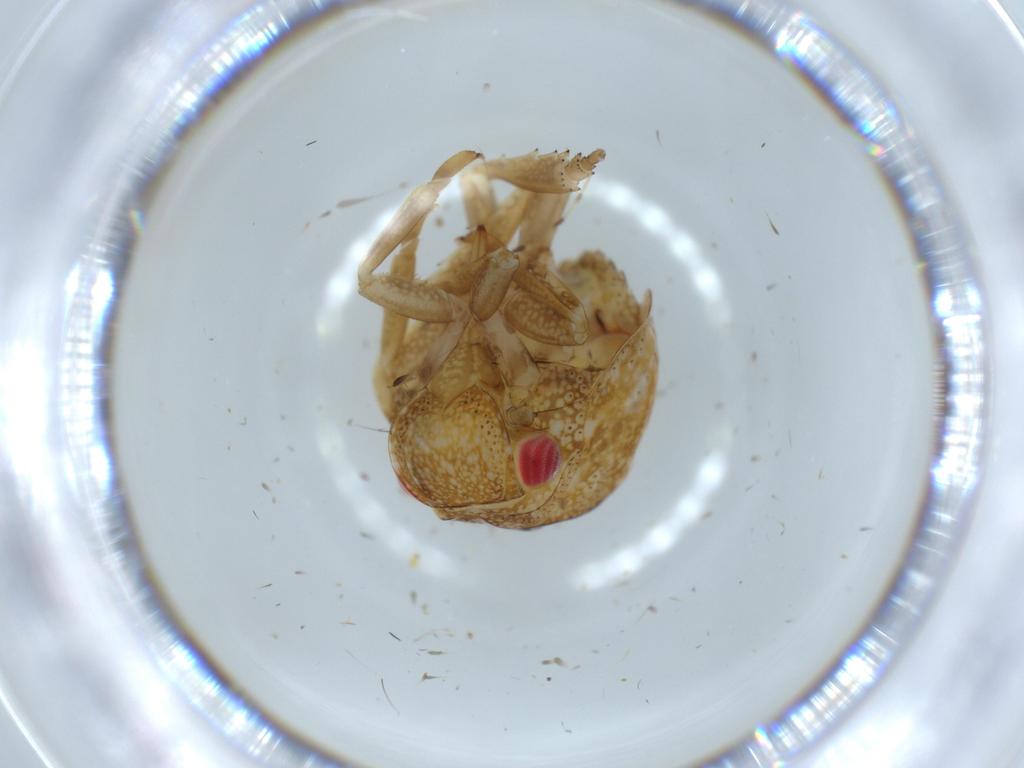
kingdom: Animalia
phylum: Arthropoda
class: Insecta
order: Hemiptera
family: Acanaloniidae
